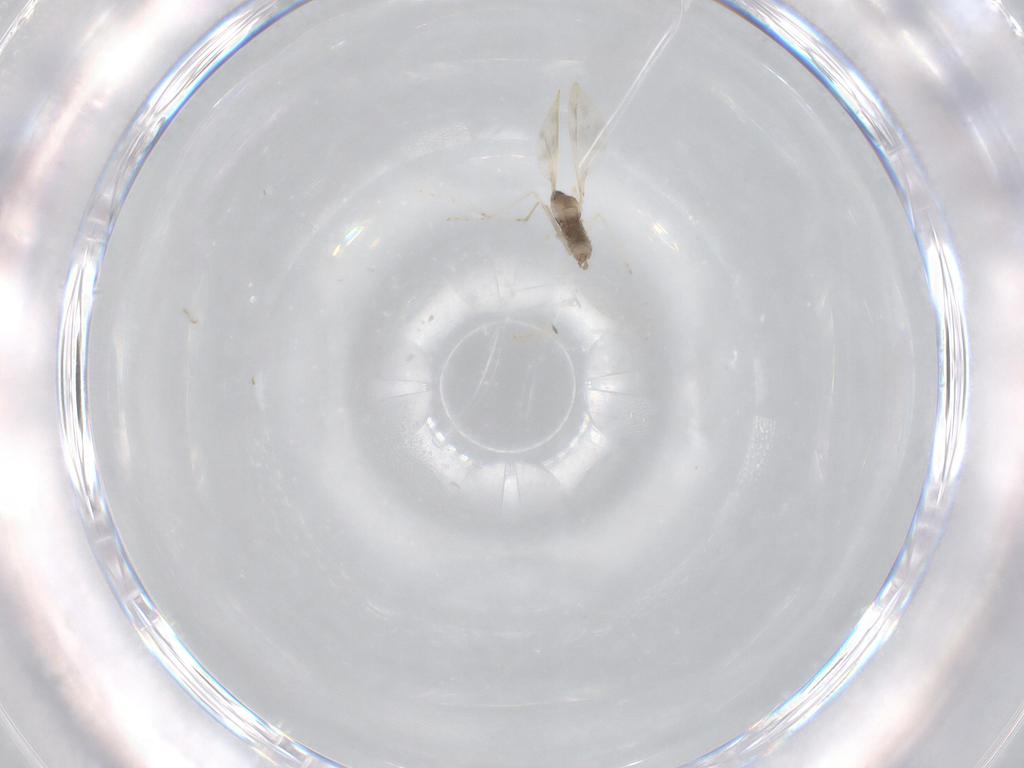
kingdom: Animalia
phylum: Arthropoda
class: Insecta
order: Diptera
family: Cecidomyiidae
